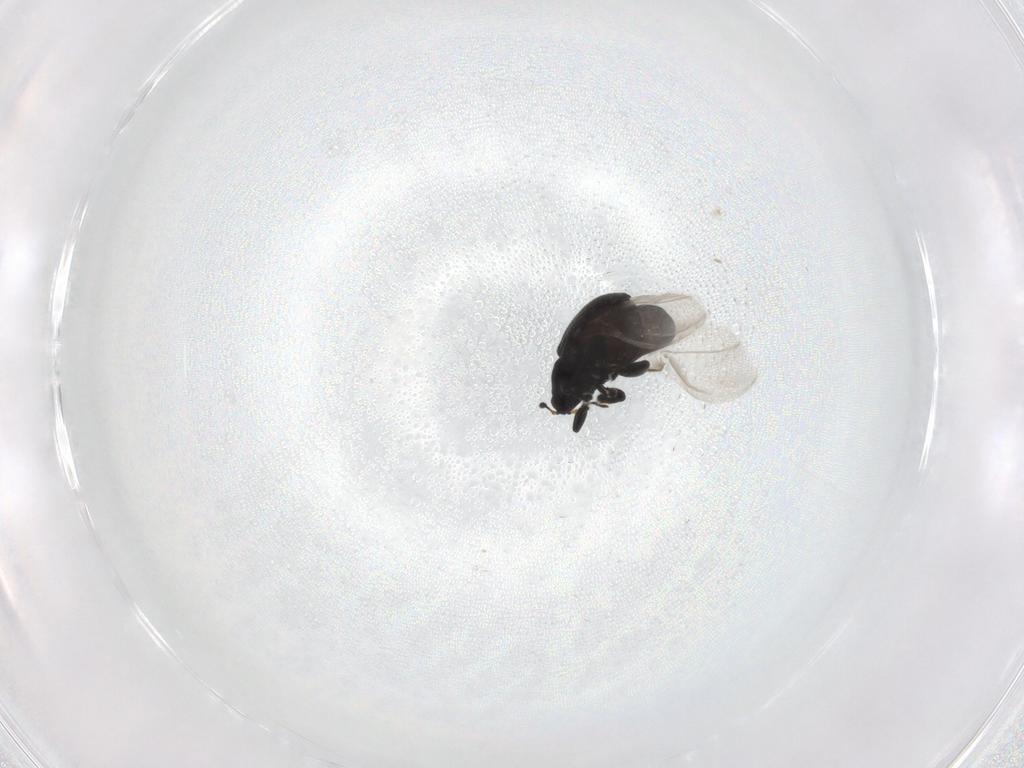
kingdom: Animalia
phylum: Arthropoda
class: Insecta
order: Coleoptera
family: Curculionidae
